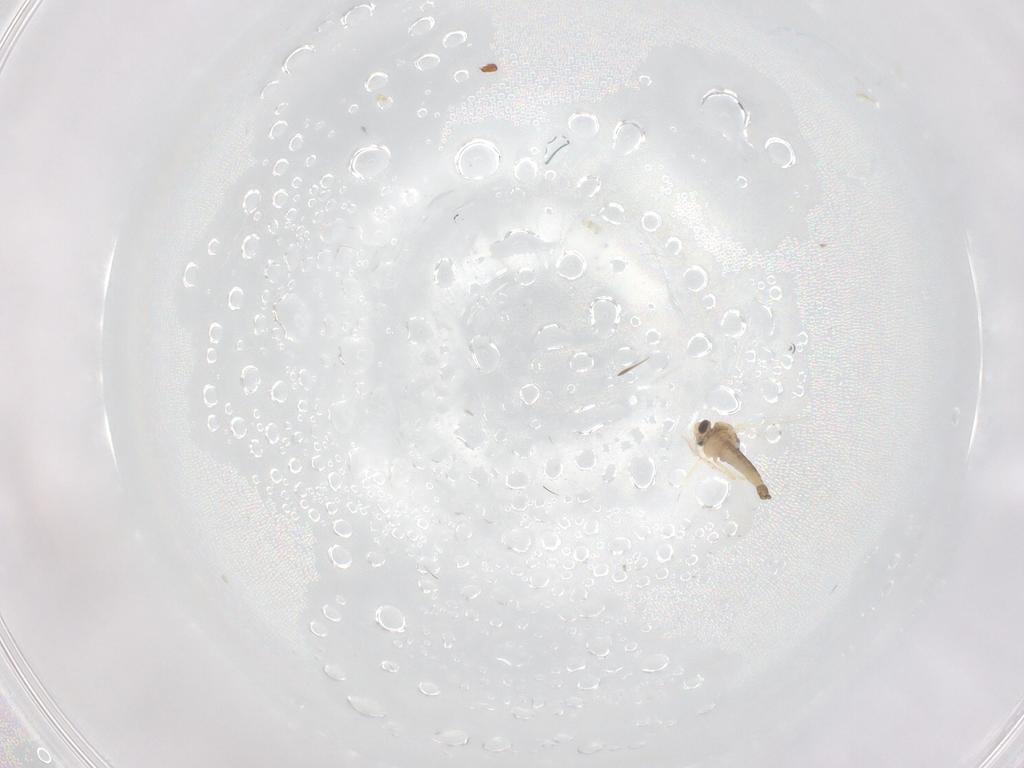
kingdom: Animalia
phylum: Arthropoda
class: Insecta
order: Diptera
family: Chironomidae
